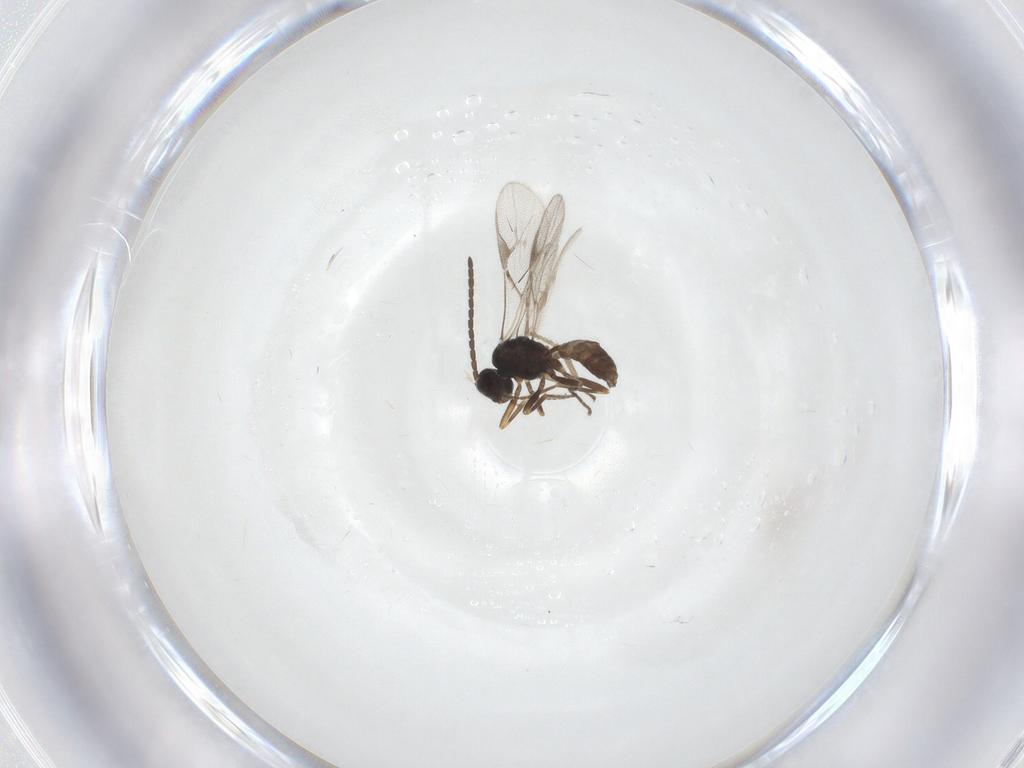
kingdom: Animalia
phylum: Arthropoda
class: Insecta
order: Hymenoptera
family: Braconidae
